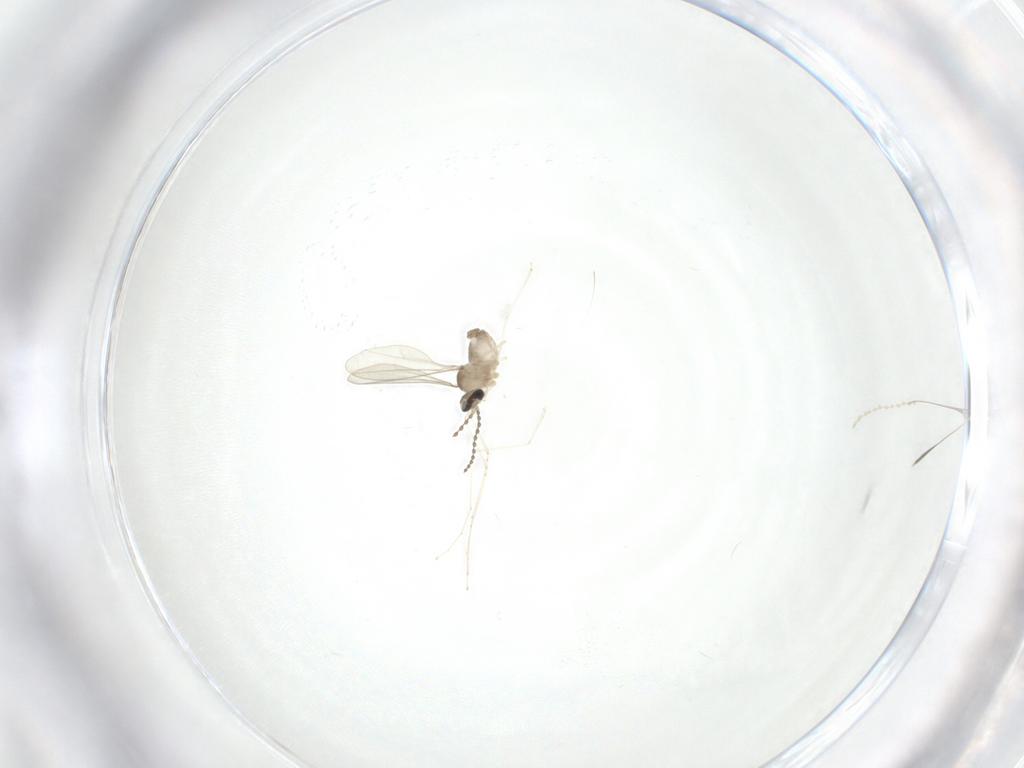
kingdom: Animalia
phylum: Arthropoda
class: Insecta
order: Diptera
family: Cecidomyiidae
